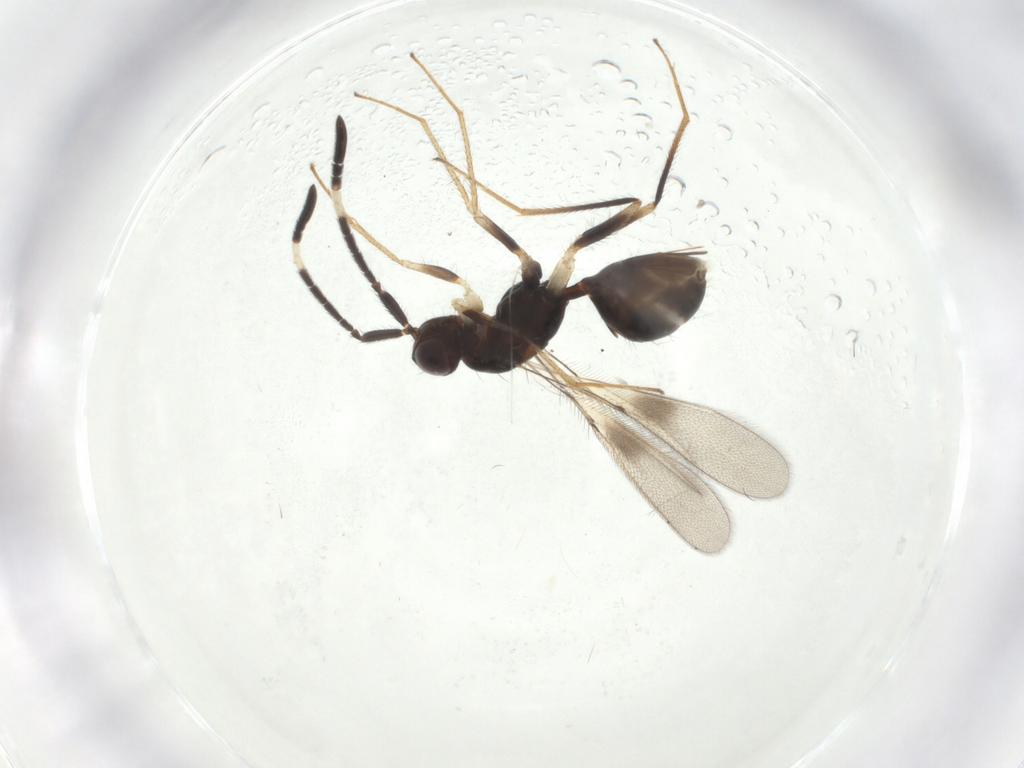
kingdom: Animalia
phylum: Arthropoda
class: Insecta
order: Hymenoptera
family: Mymaridae
